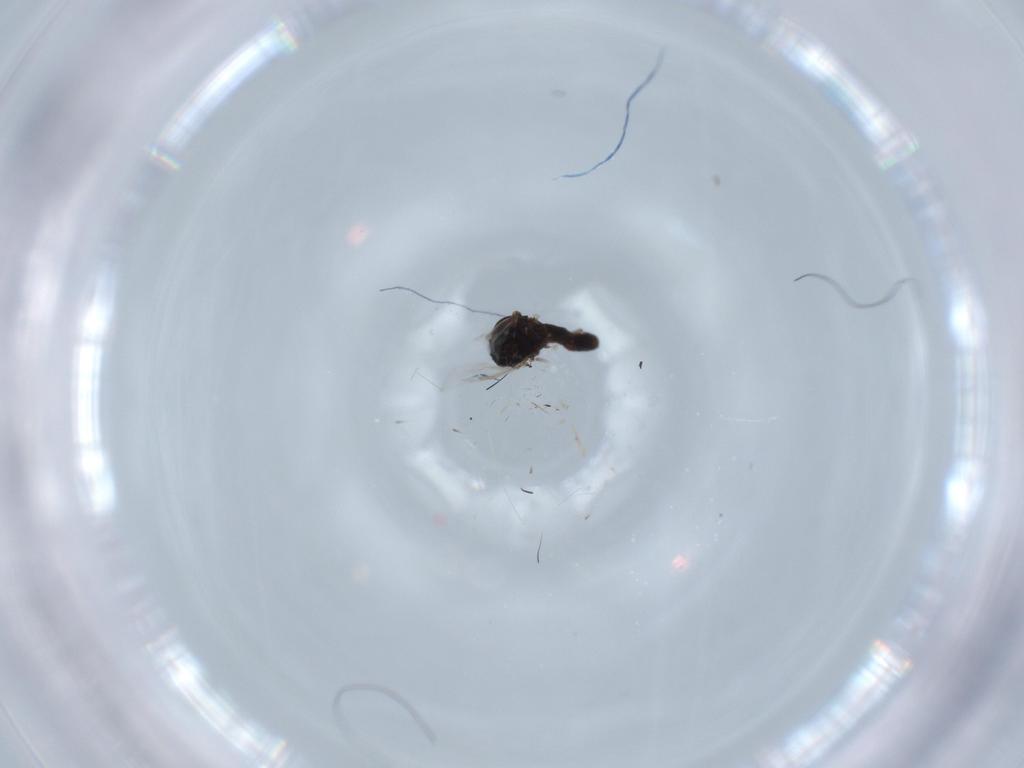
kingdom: Animalia
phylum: Arthropoda
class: Insecta
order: Diptera
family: Ceratopogonidae
